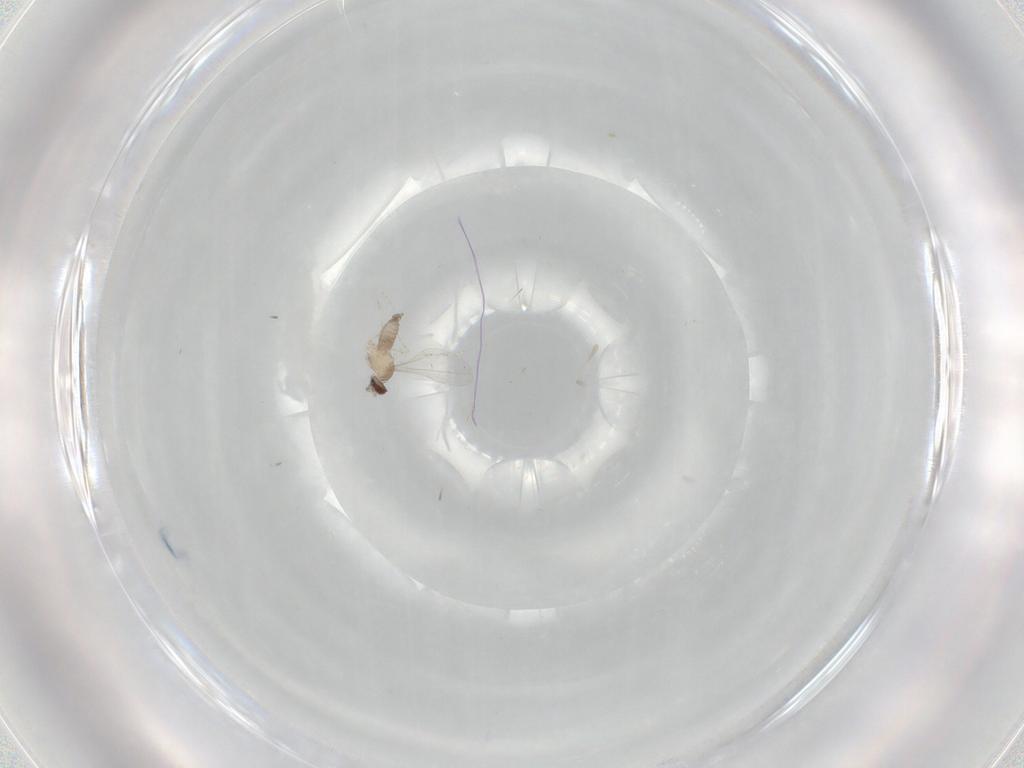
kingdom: Animalia
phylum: Arthropoda
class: Insecta
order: Diptera
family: Cecidomyiidae
